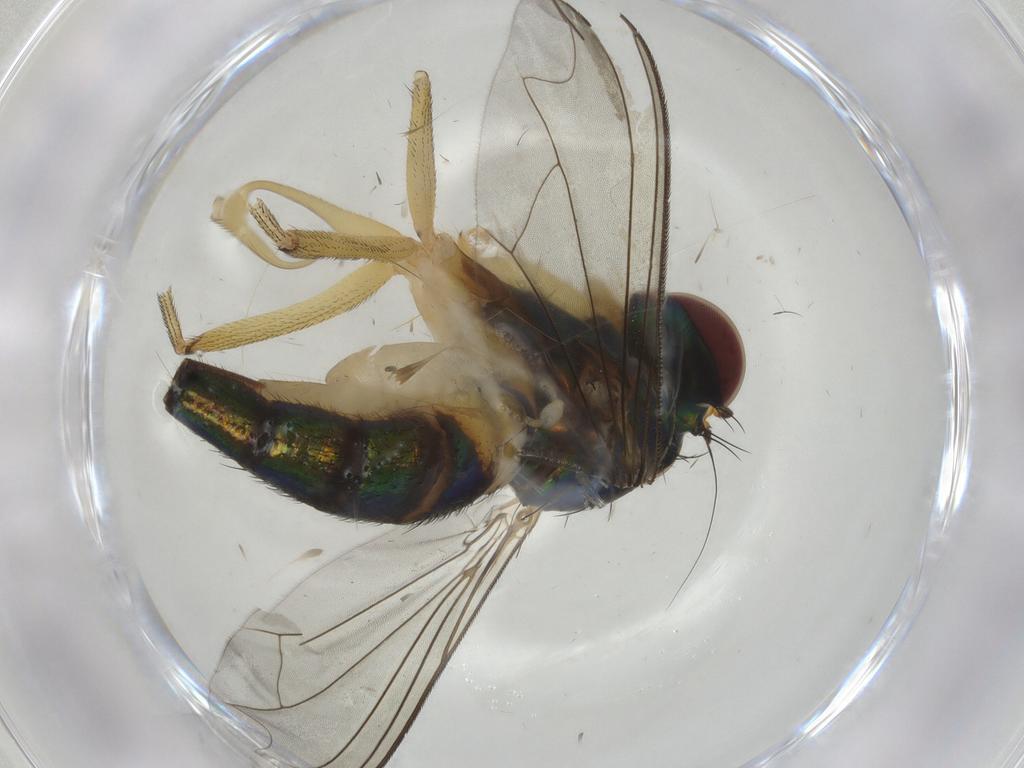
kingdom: Animalia
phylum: Arthropoda
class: Insecta
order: Diptera
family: Dolichopodidae
